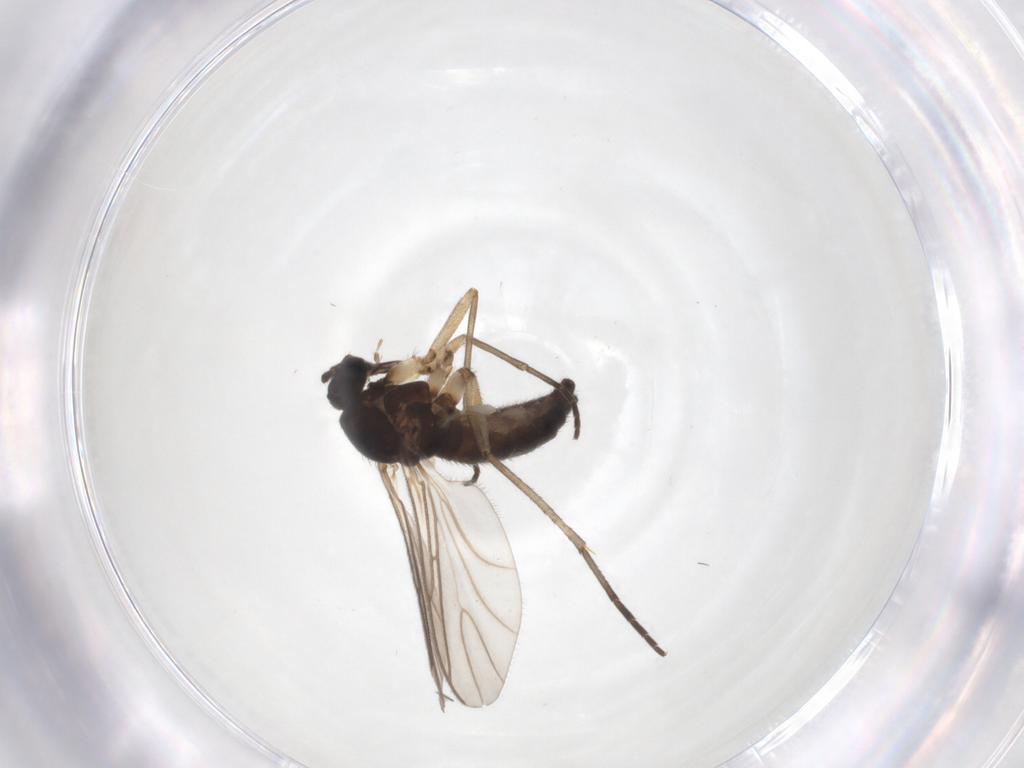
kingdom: Animalia
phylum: Arthropoda
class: Insecta
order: Diptera
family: Sciaridae
